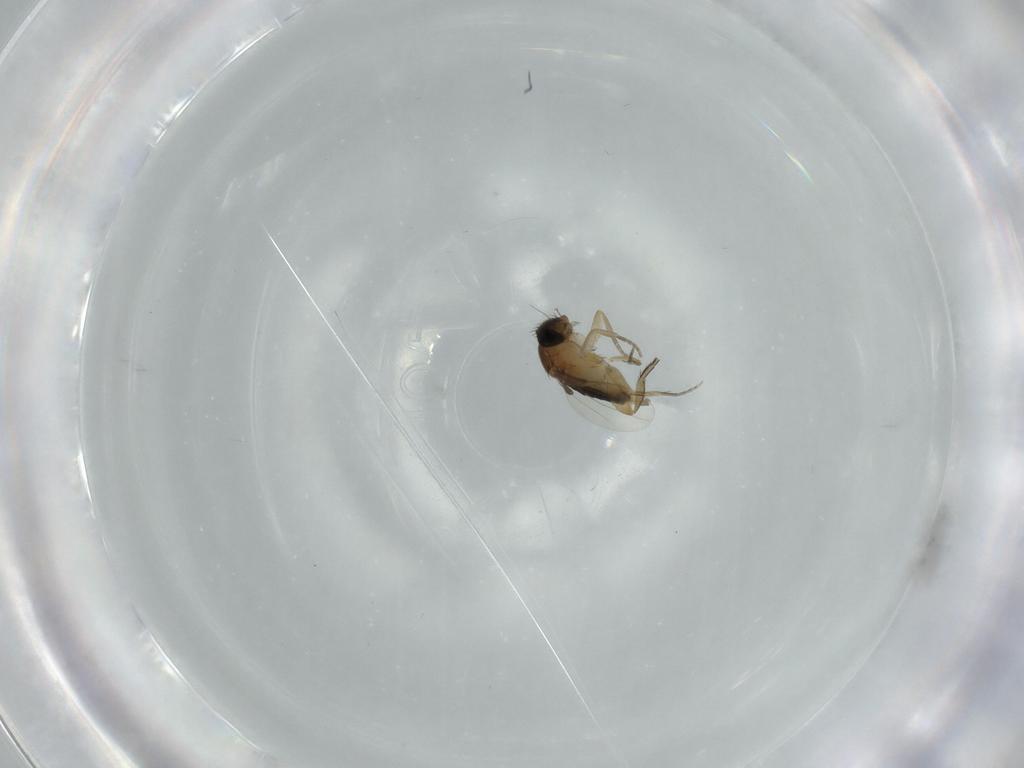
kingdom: Animalia
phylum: Arthropoda
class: Insecta
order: Diptera
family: Phoridae
